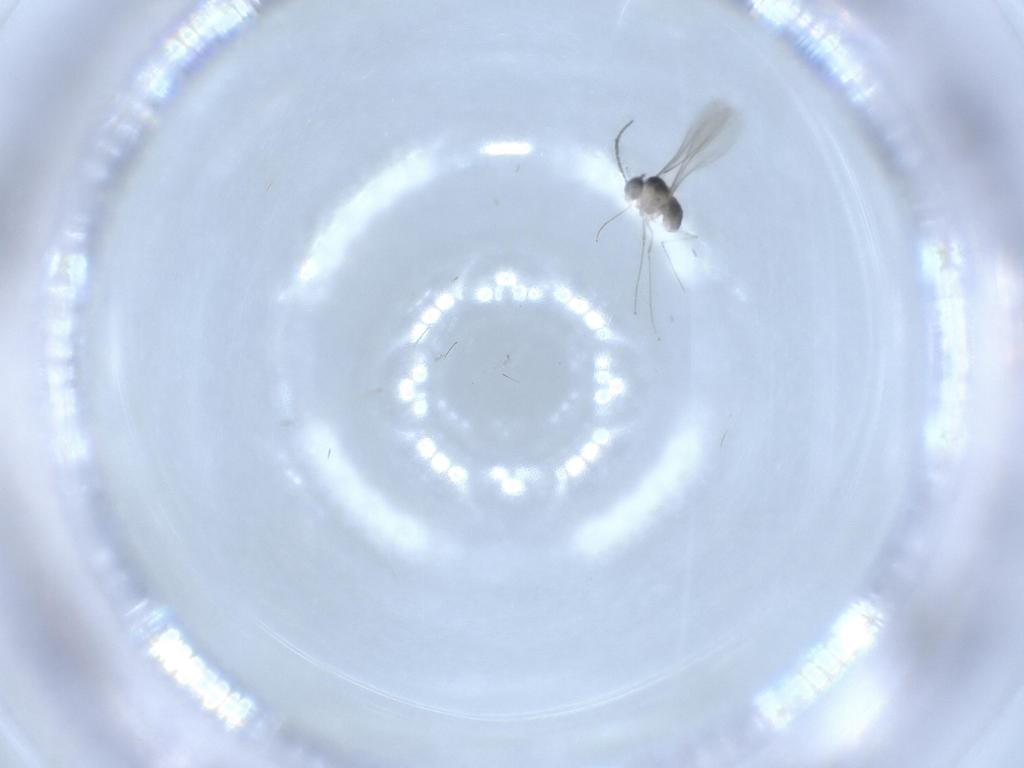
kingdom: Animalia
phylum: Arthropoda
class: Insecta
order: Diptera
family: Cecidomyiidae
